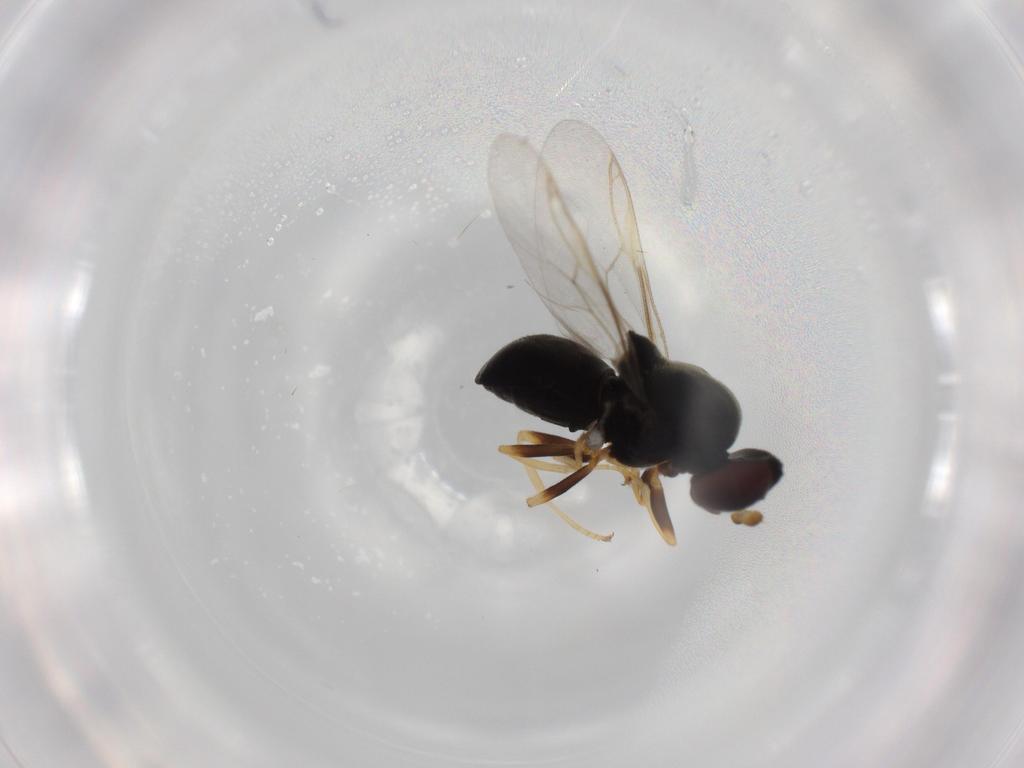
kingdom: Animalia
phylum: Arthropoda
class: Insecta
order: Diptera
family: Stratiomyidae
